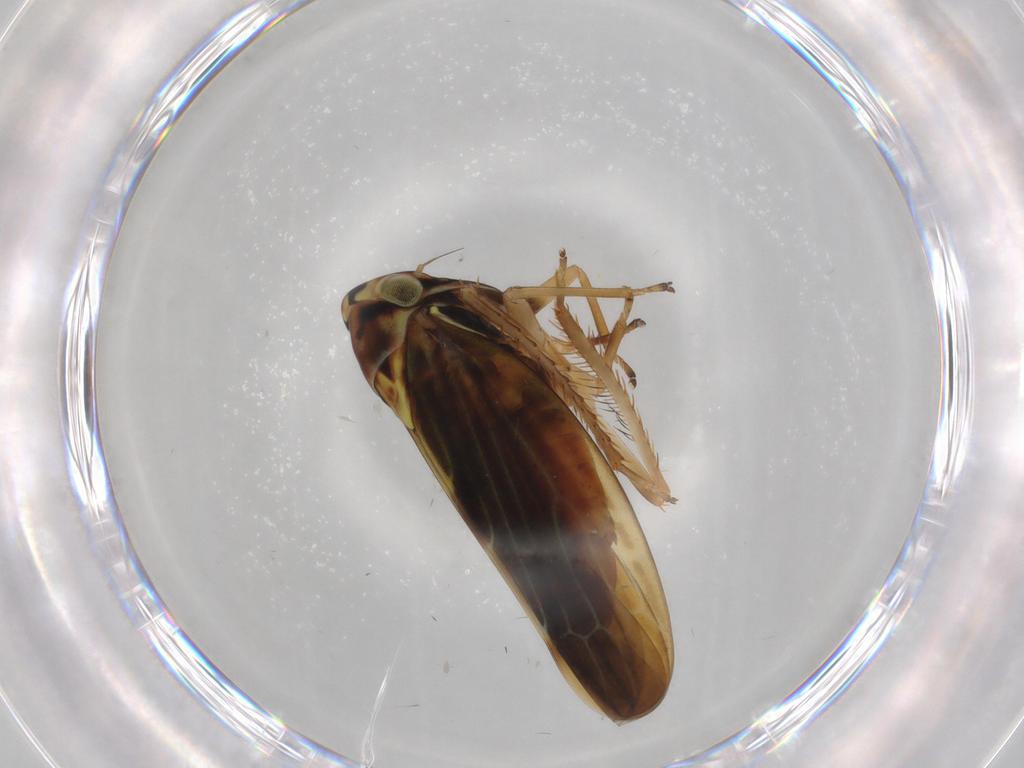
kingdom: Animalia
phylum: Arthropoda
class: Insecta
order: Hemiptera
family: Cicadellidae
